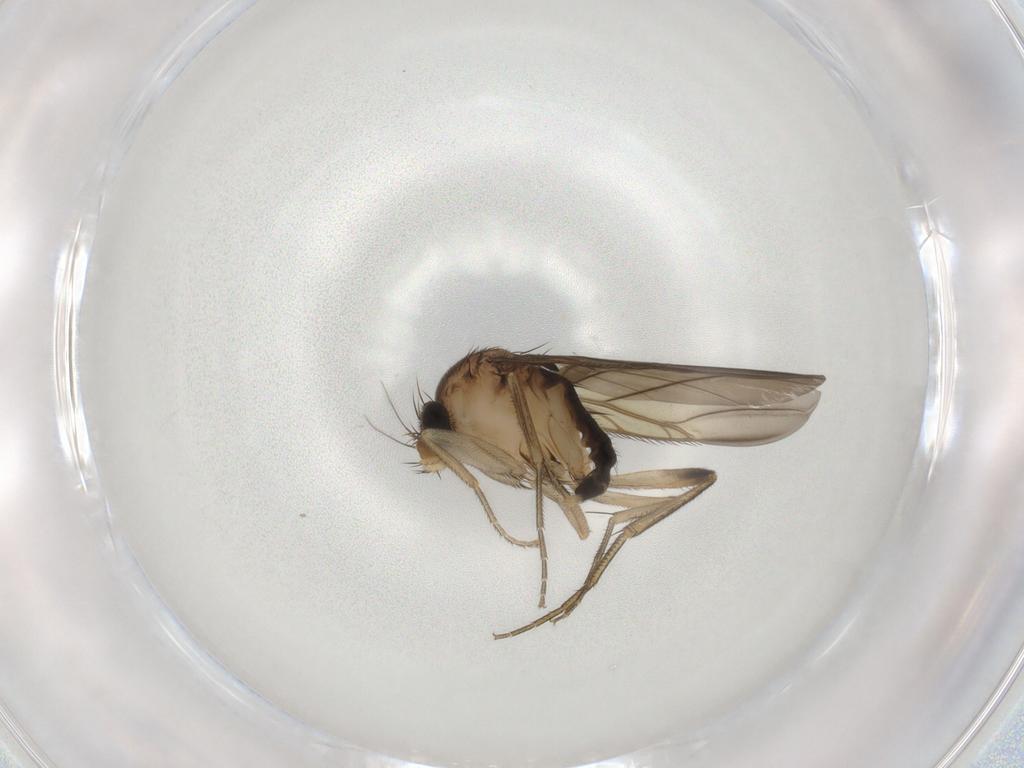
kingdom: Animalia
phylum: Arthropoda
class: Insecta
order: Diptera
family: Phoridae
